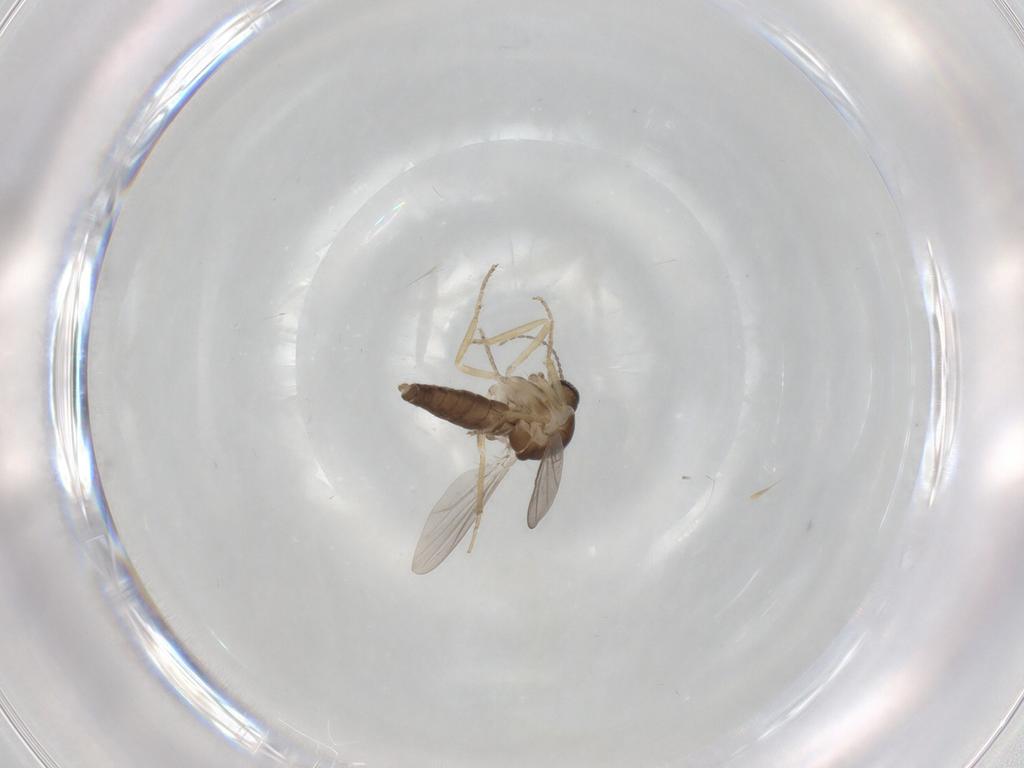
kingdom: Animalia
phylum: Arthropoda
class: Insecta
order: Diptera
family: Ceratopogonidae
